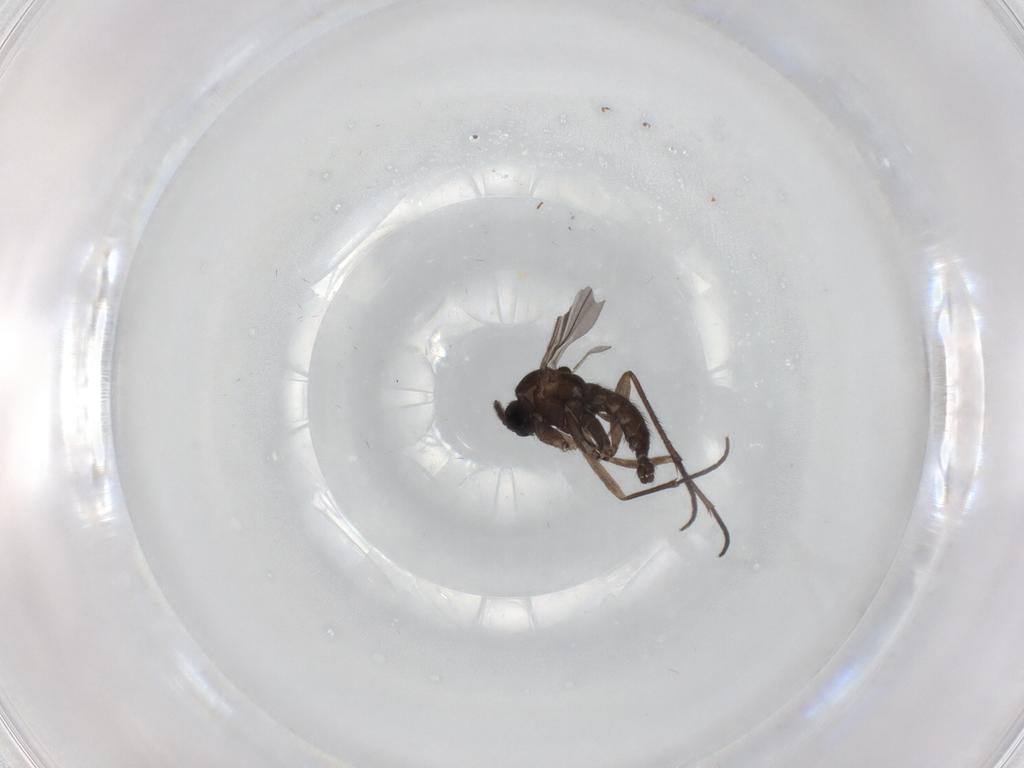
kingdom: Animalia
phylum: Arthropoda
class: Insecta
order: Diptera
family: Sciaridae
